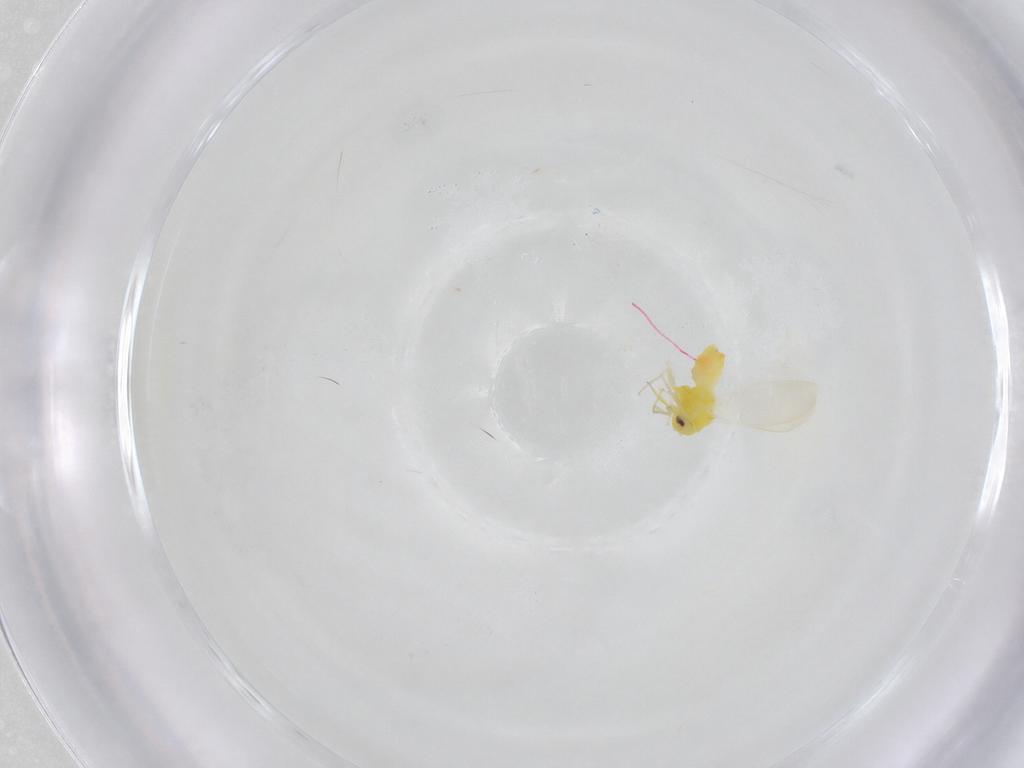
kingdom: Animalia
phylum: Arthropoda
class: Insecta
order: Hemiptera
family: Aleyrodidae
